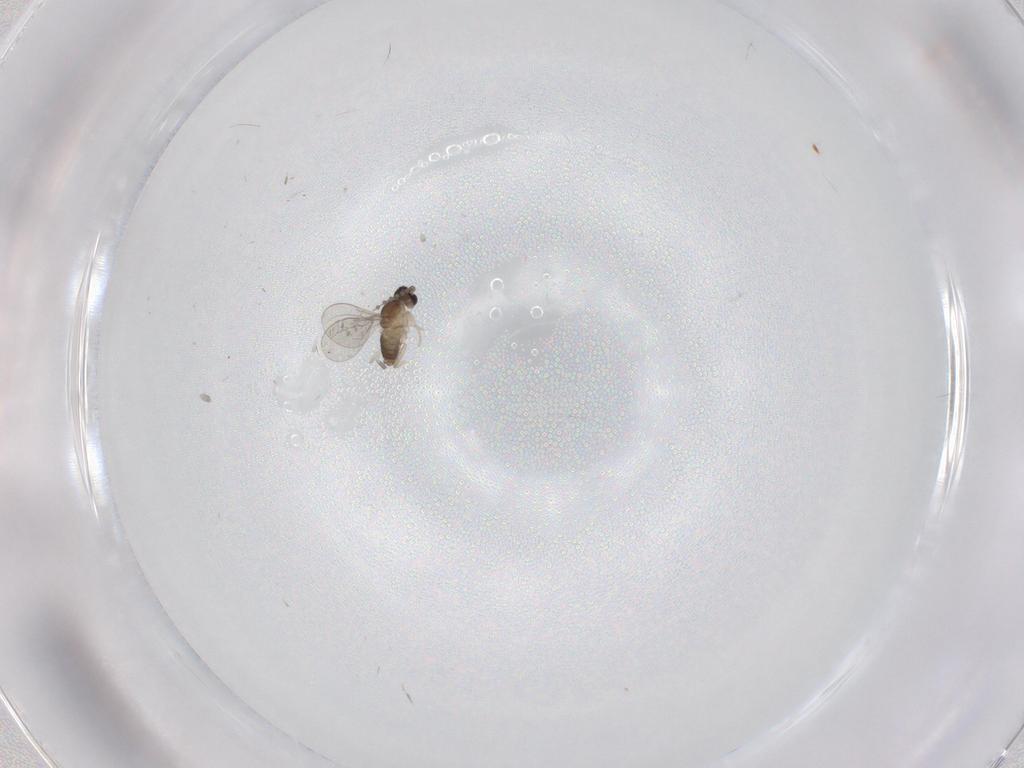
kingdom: Animalia
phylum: Arthropoda
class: Insecta
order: Diptera
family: Cecidomyiidae
